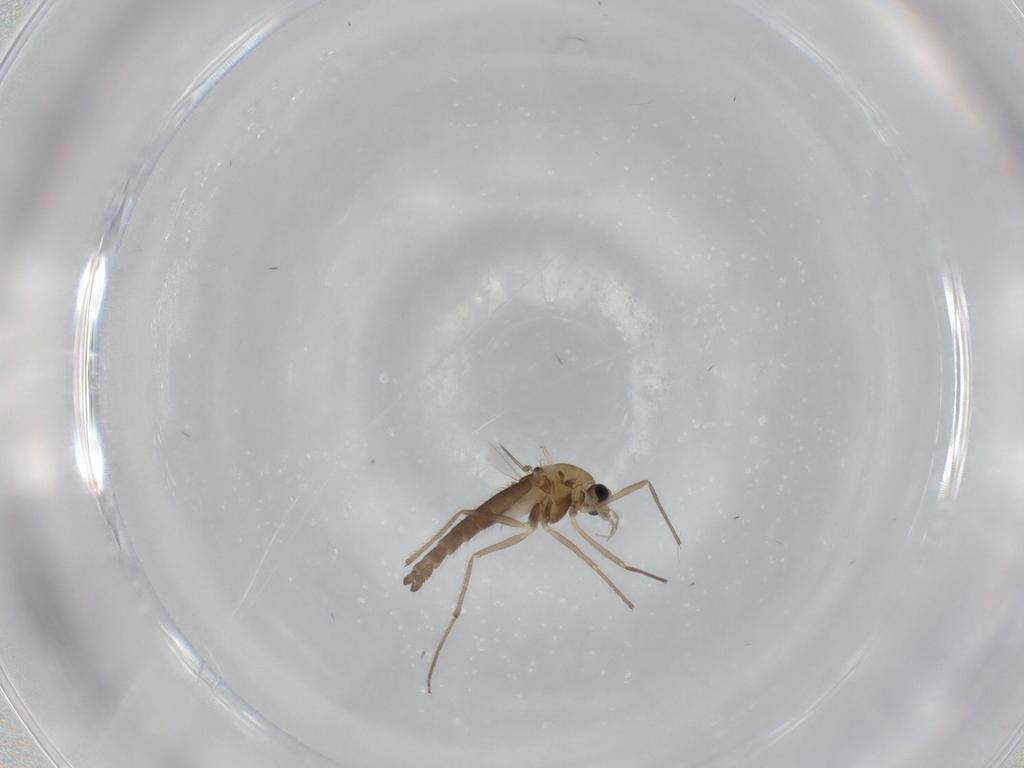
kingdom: Animalia
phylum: Arthropoda
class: Insecta
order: Diptera
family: Chironomidae
